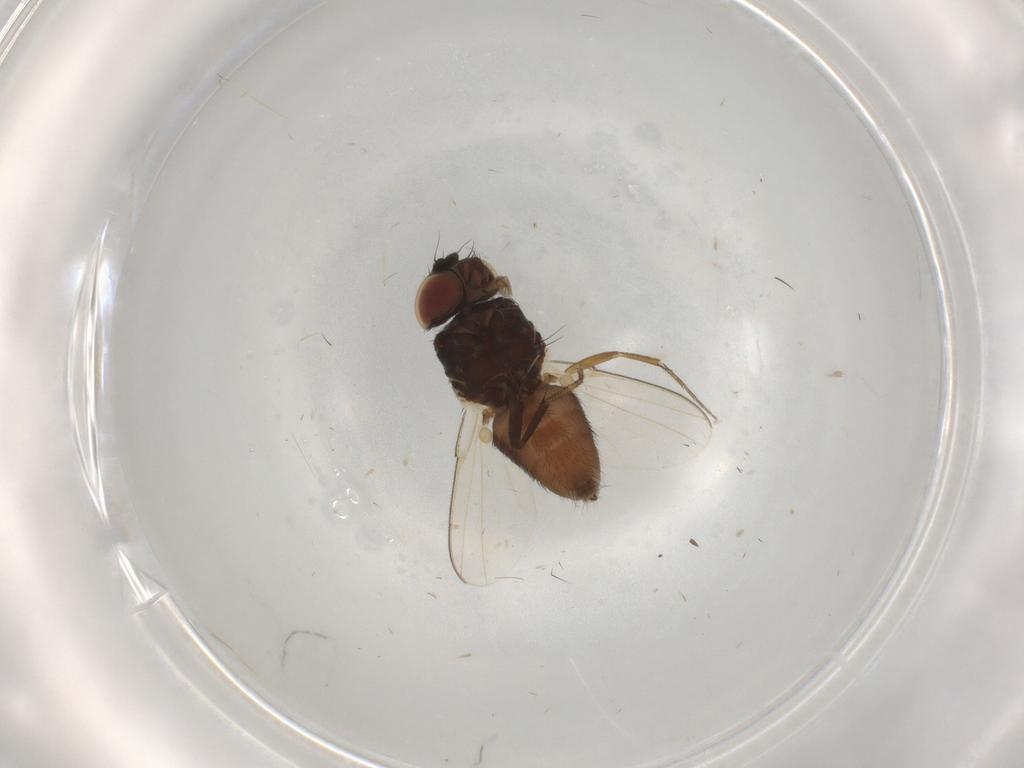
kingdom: Animalia
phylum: Arthropoda
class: Insecta
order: Diptera
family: Milichiidae
